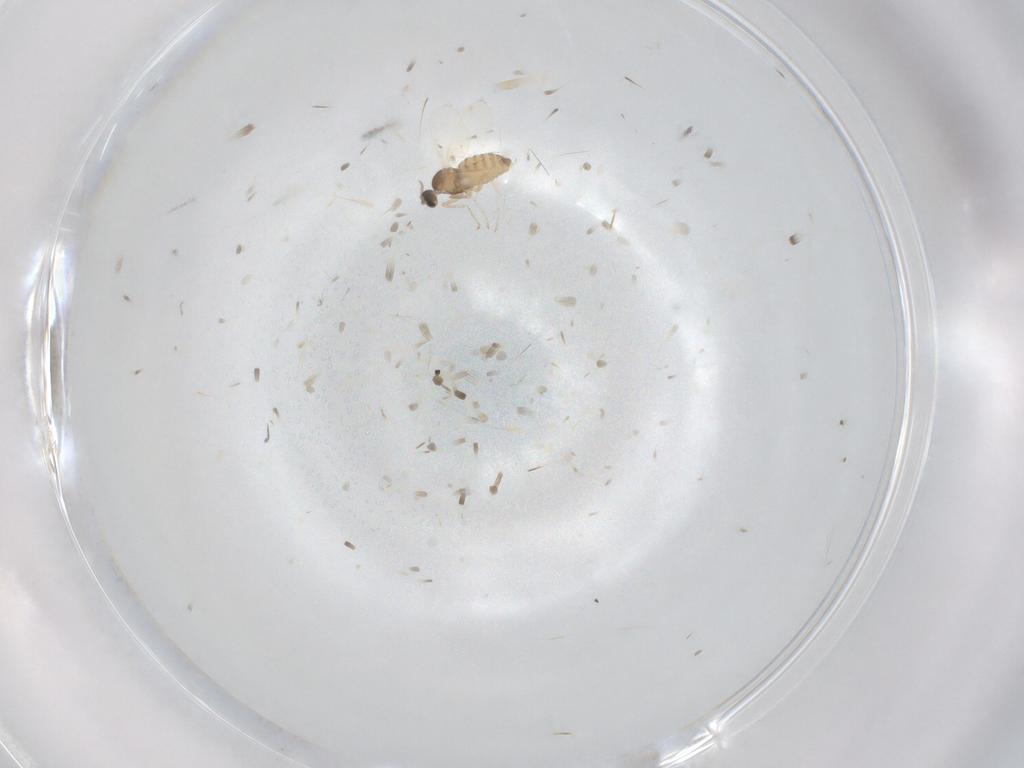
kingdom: Animalia
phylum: Arthropoda
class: Insecta
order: Diptera
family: Cecidomyiidae
